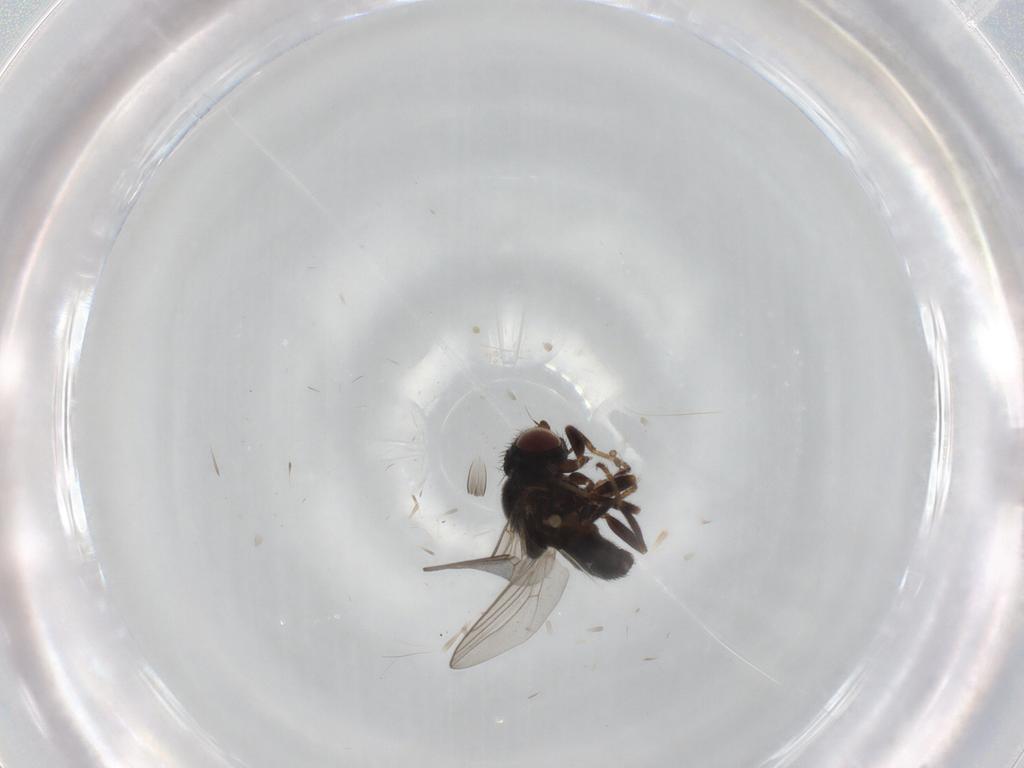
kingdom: Animalia
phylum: Arthropoda
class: Insecta
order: Diptera
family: Chloropidae
